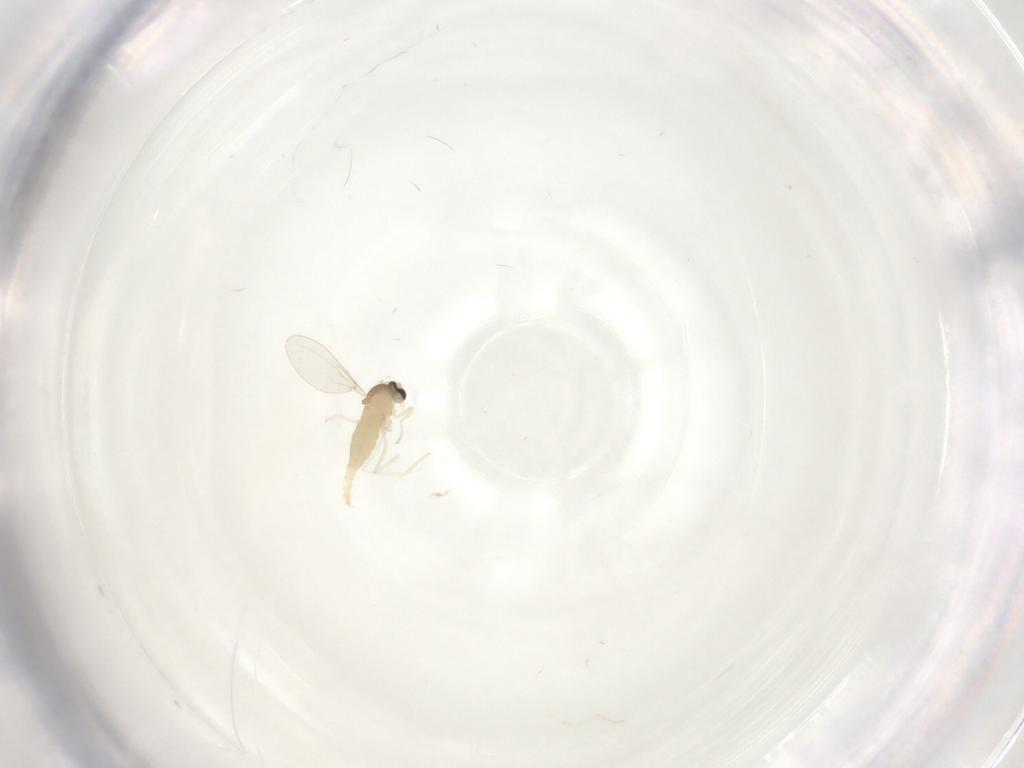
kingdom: Animalia
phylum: Arthropoda
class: Insecta
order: Diptera
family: Cecidomyiidae
